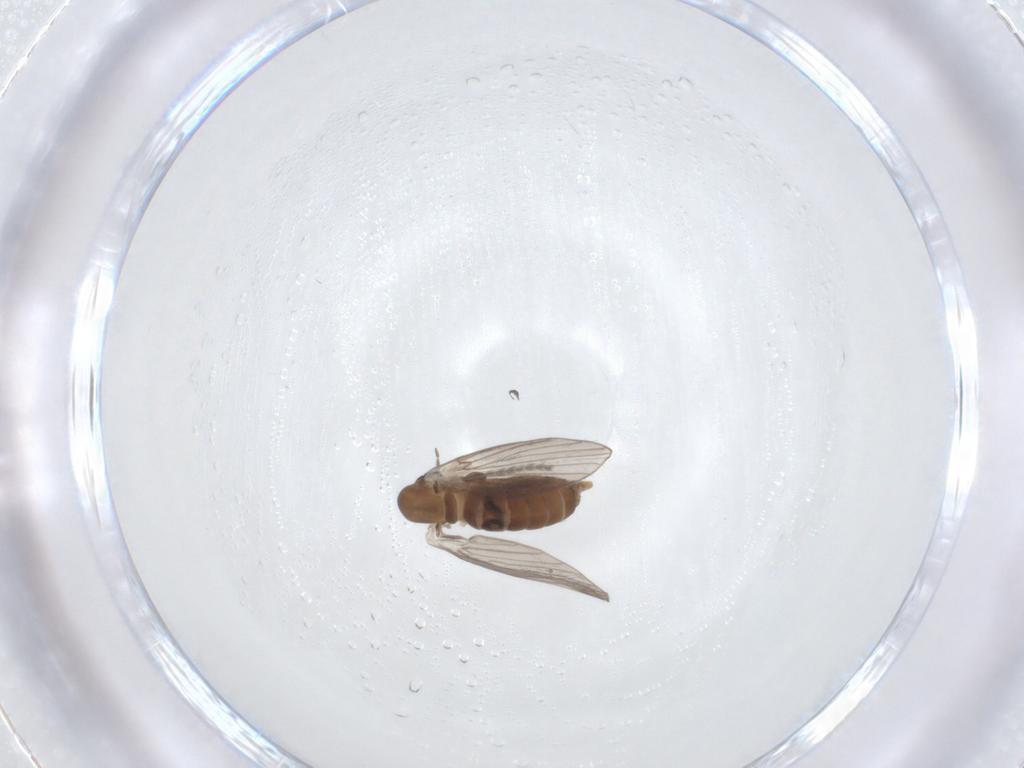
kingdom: Animalia
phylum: Arthropoda
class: Insecta
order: Diptera
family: Cecidomyiidae
